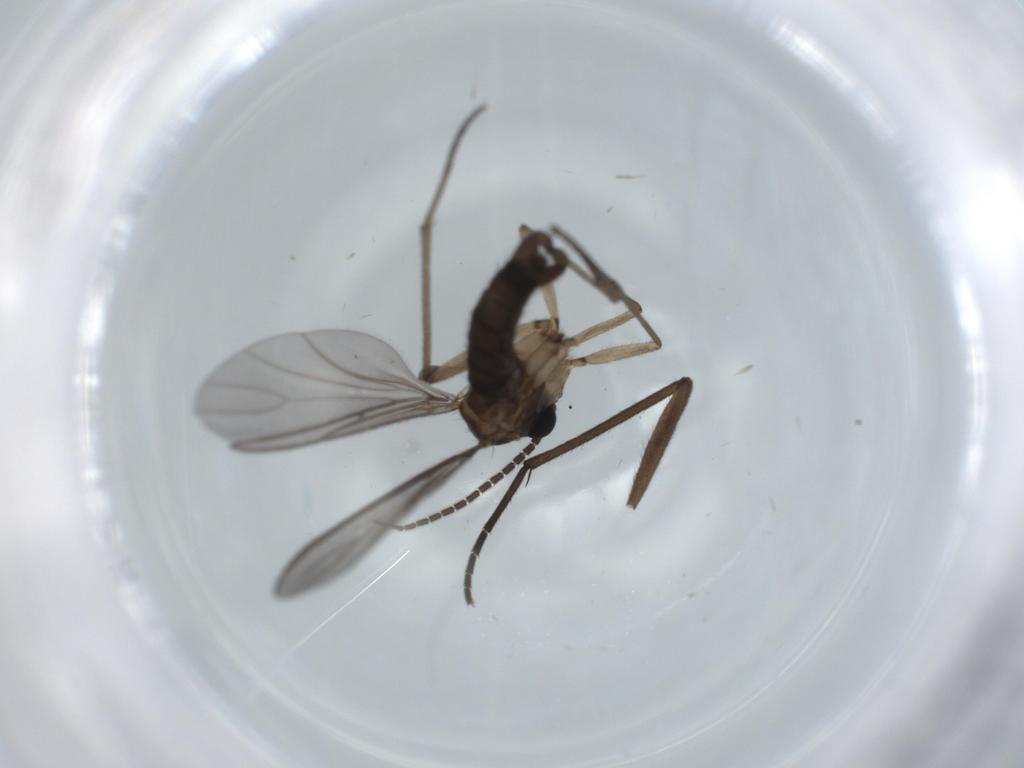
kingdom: Animalia
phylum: Arthropoda
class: Insecta
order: Diptera
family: Sciaridae
